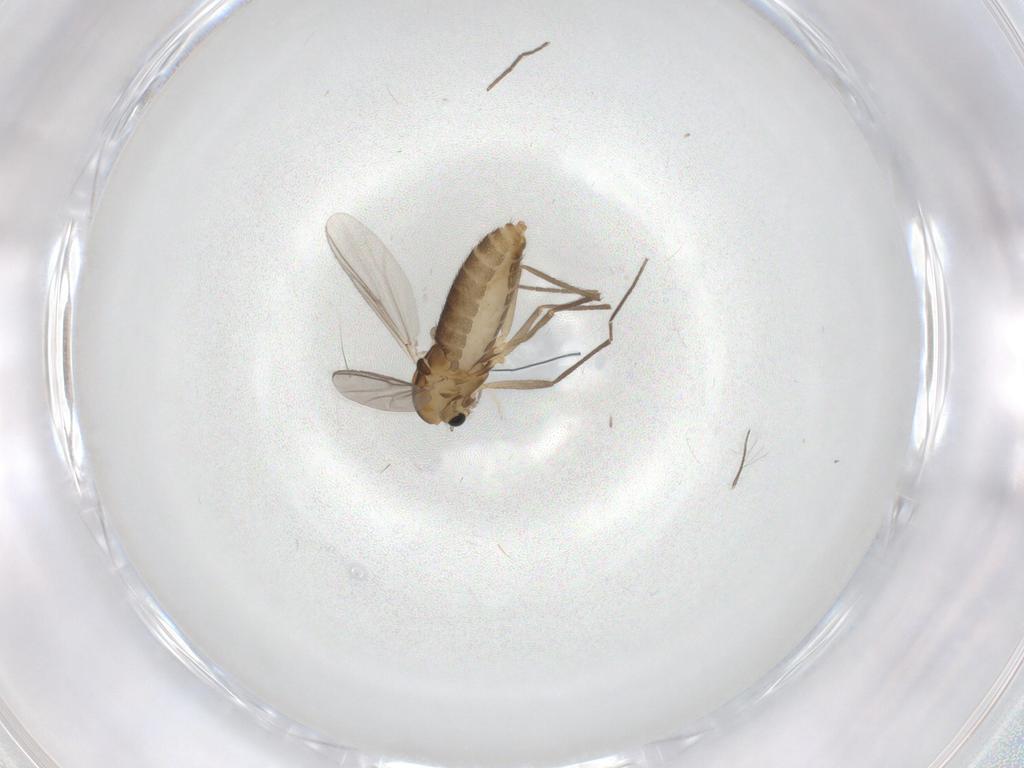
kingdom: Animalia
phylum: Arthropoda
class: Insecta
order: Diptera
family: Chironomidae
